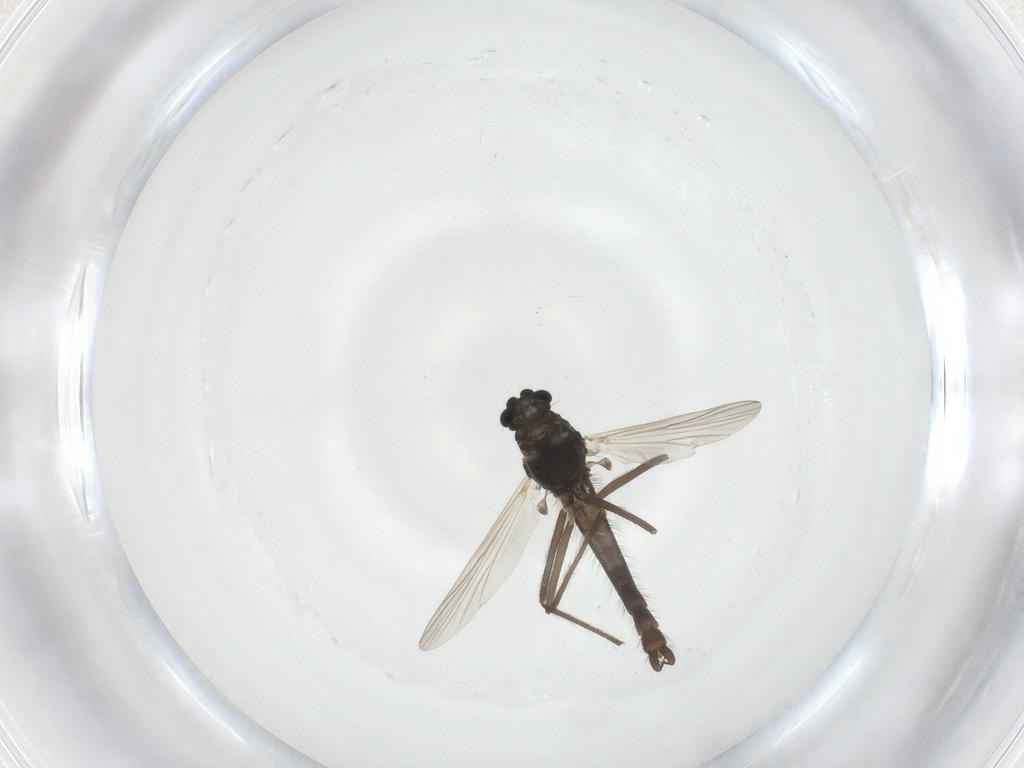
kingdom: Animalia
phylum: Arthropoda
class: Insecta
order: Diptera
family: Chironomidae
